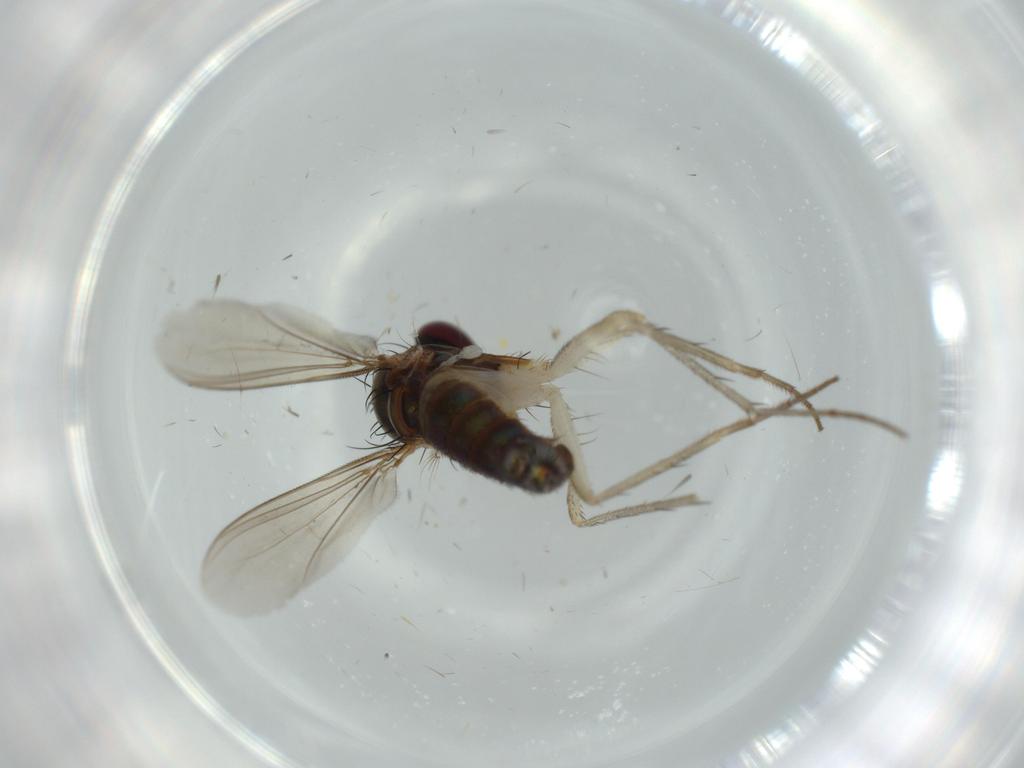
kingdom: Animalia
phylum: Arthropoda
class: Insecta
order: Diptera
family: Dolichopodidae
